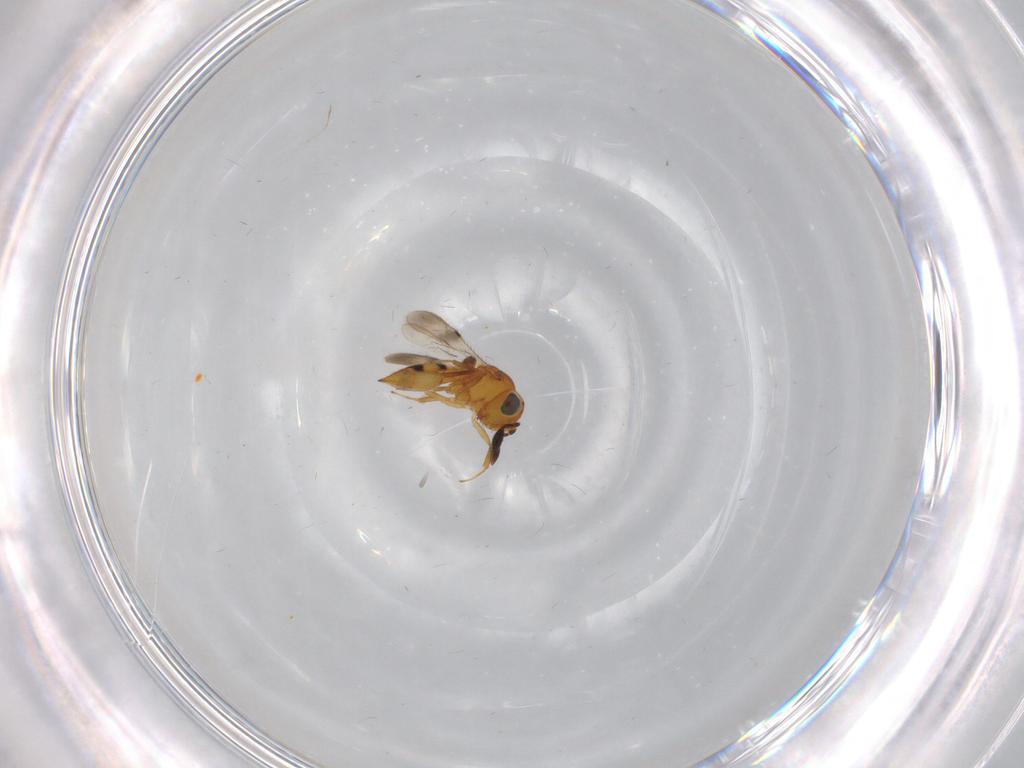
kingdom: Animalia
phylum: Arthropoda
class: Insecta
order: Hymenoptera
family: Scelionidae
